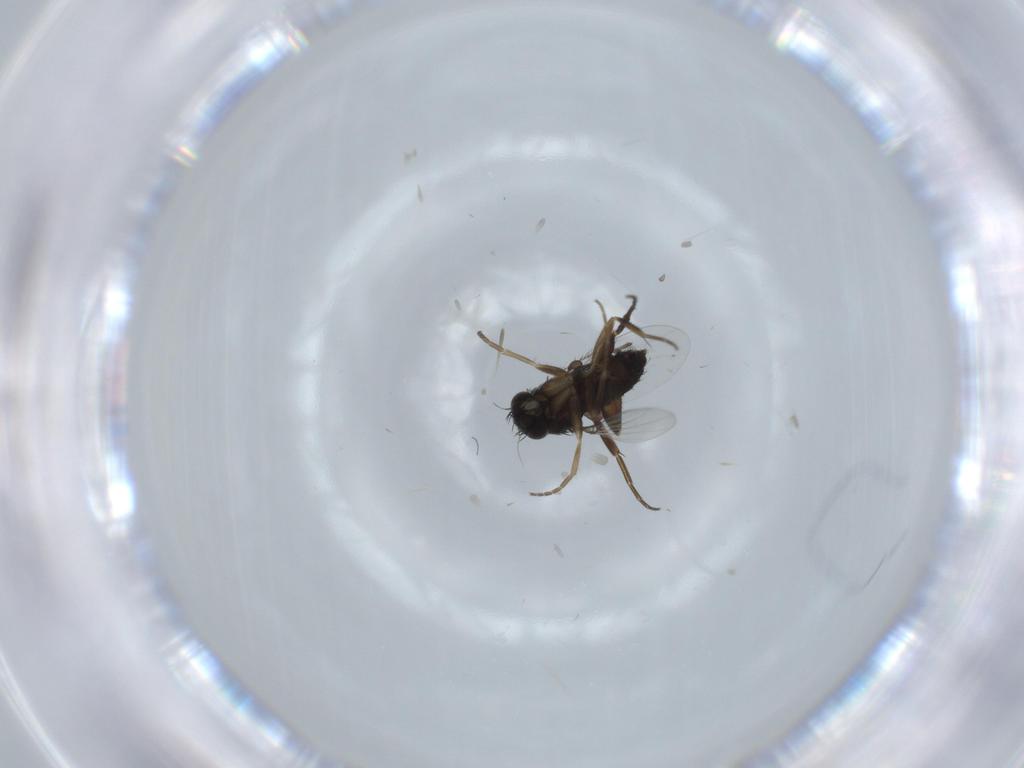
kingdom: Animalia
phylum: Arthropoda
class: Insecta
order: Diptera
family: Phoridae
